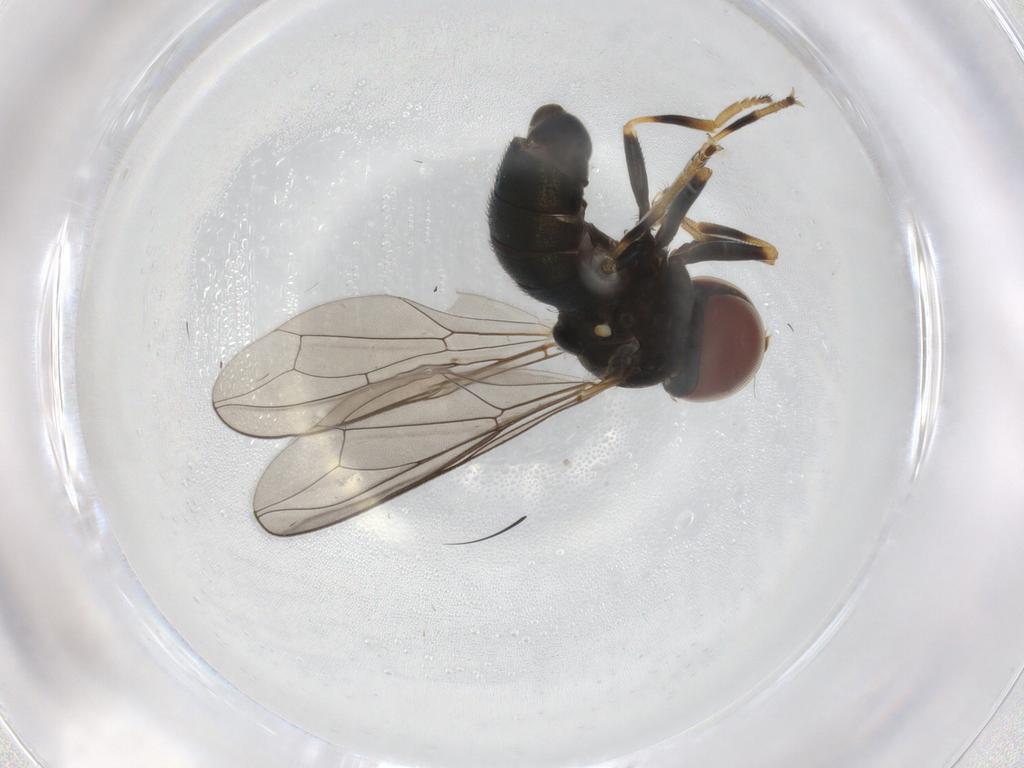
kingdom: Animalia
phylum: Arthropoda
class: Insecta
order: Diptera
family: Pipunculidae
